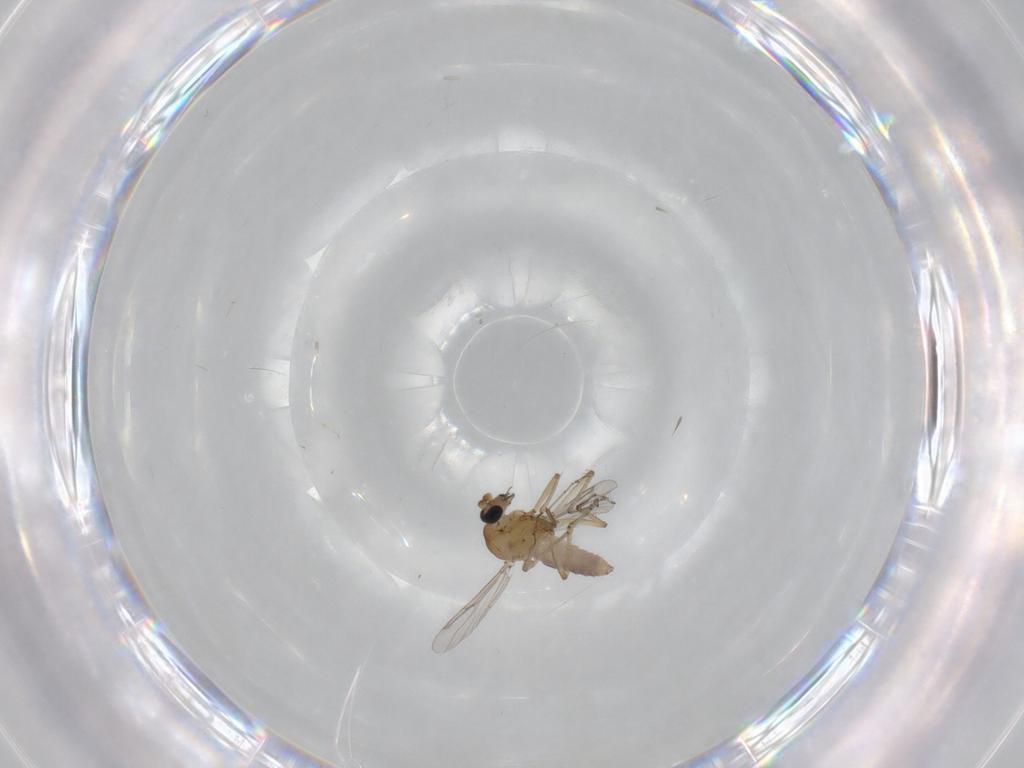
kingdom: Animalia
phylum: Arthropoda
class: Insecta
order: Diptera
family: Ceratopogonidae
